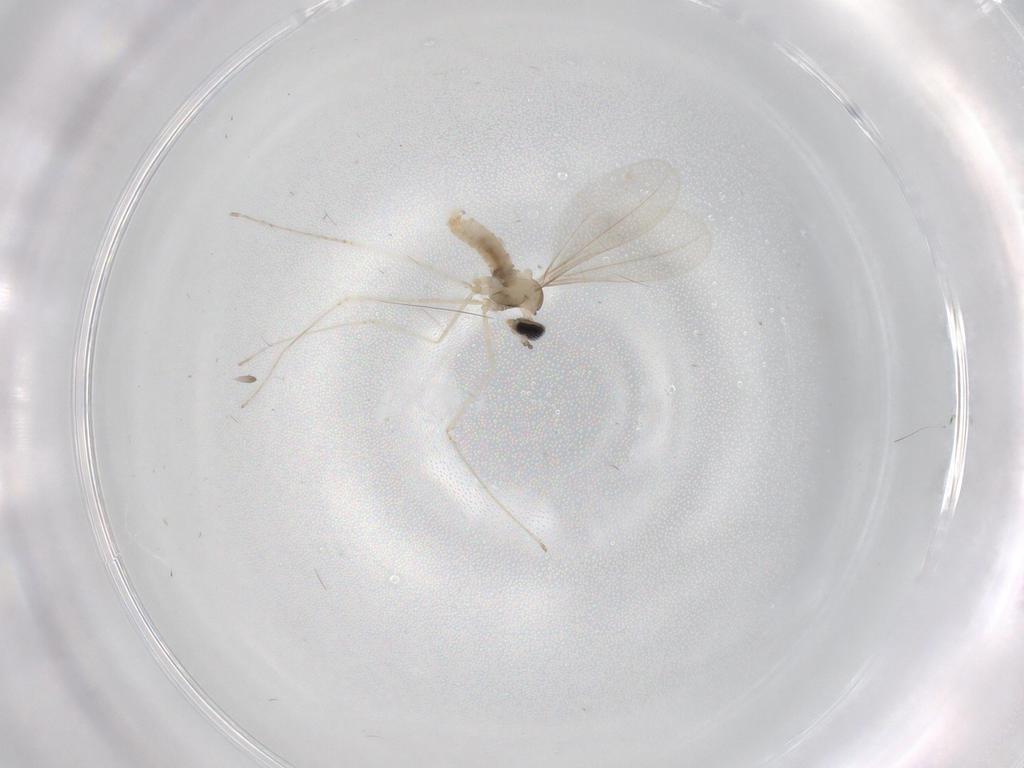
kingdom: Animalia
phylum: Arthropoda
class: Insecta
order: Diptera
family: Cecidomyiidae
